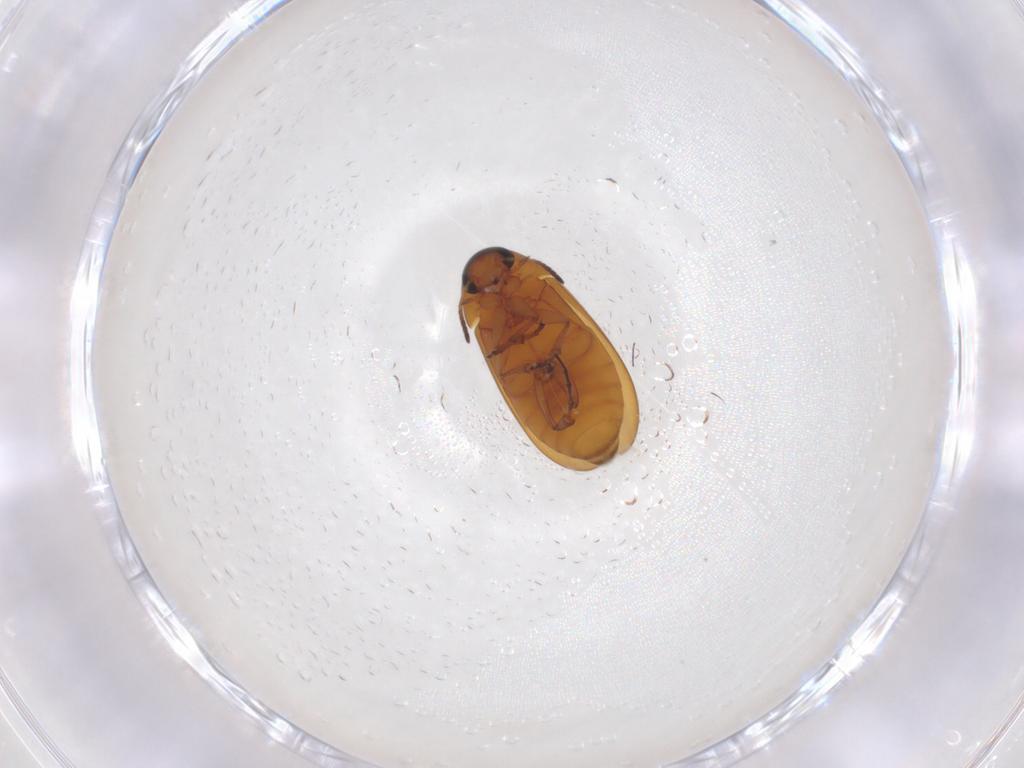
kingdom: Animalia
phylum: Arthropoda
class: Insecta
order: Coleoptera
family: Scraptiidae
